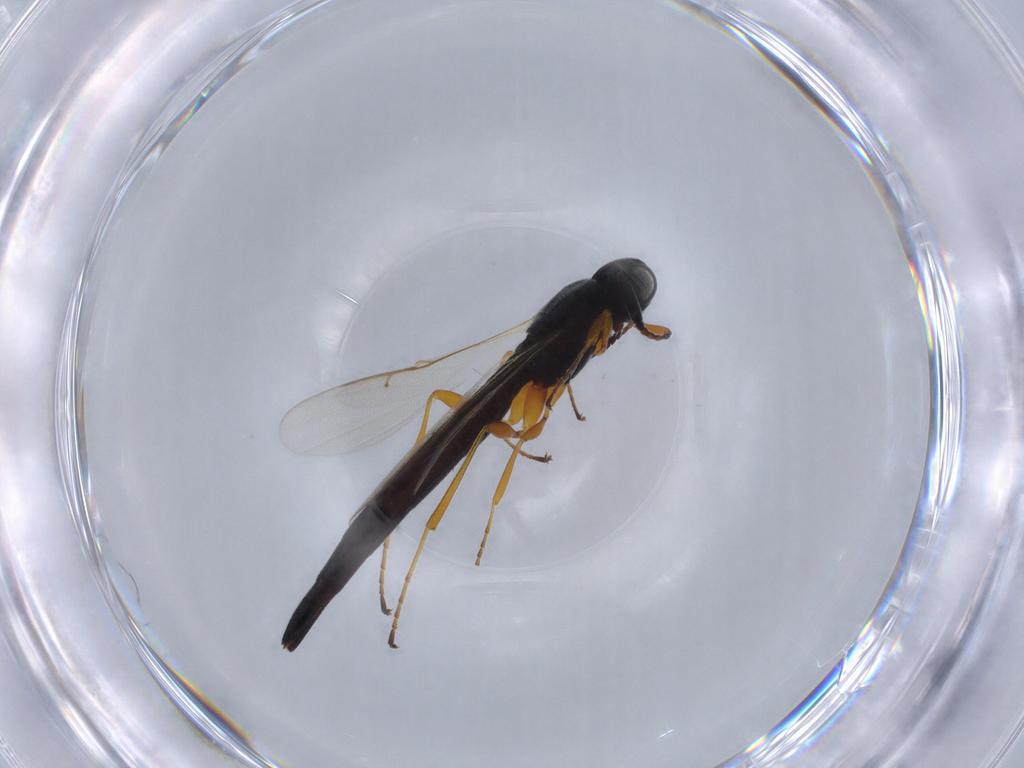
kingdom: Animalia
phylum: Arthropoda
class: Insecta
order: Hymenoptera
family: Scelionidae
